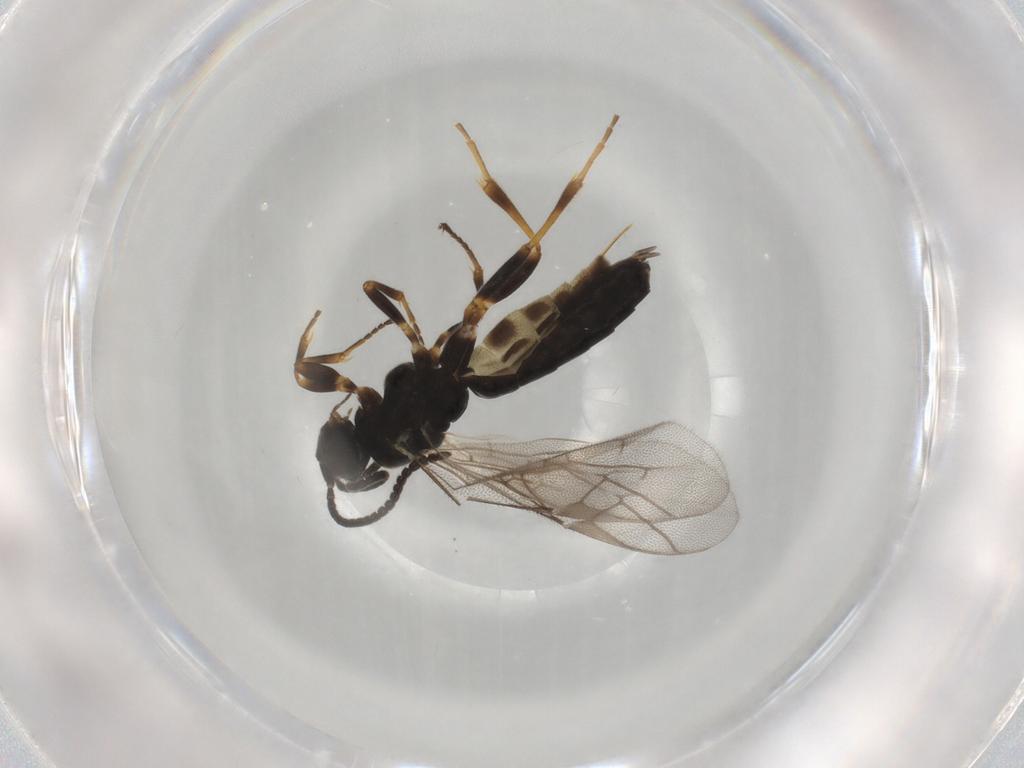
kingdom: Animalia
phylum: Arthropoda
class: Insecta
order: Hymenoptera
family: Ichneumonidae
